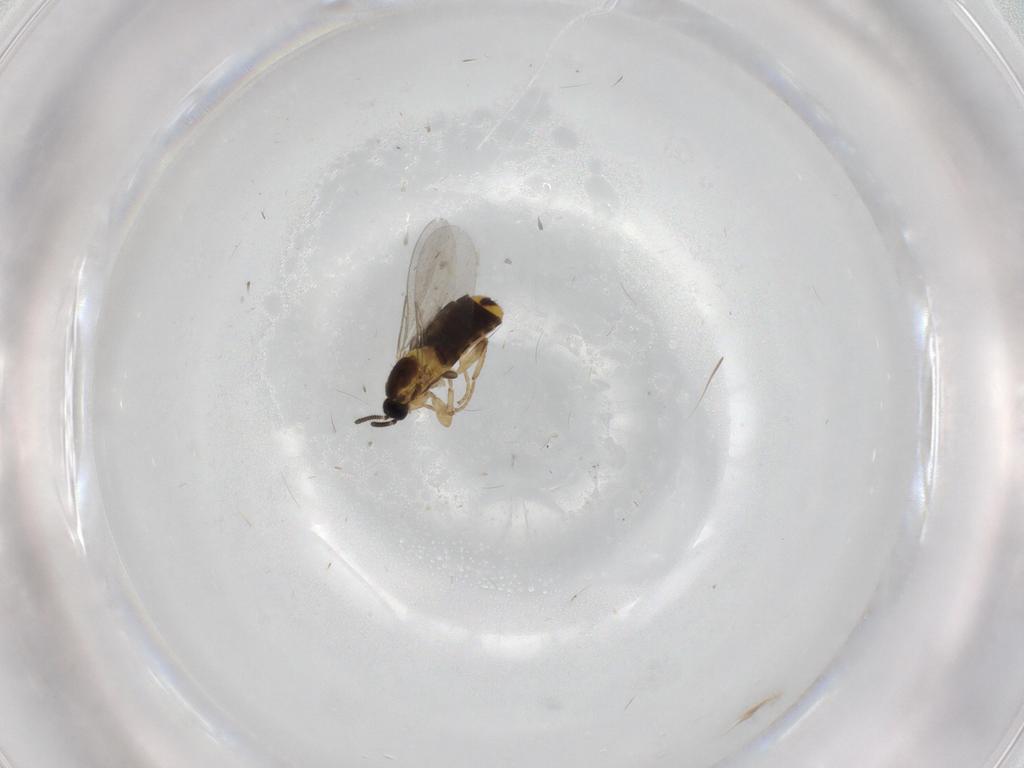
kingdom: Animalia
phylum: Arthropoda
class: Insecta
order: Diptera
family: Scatopsidae
